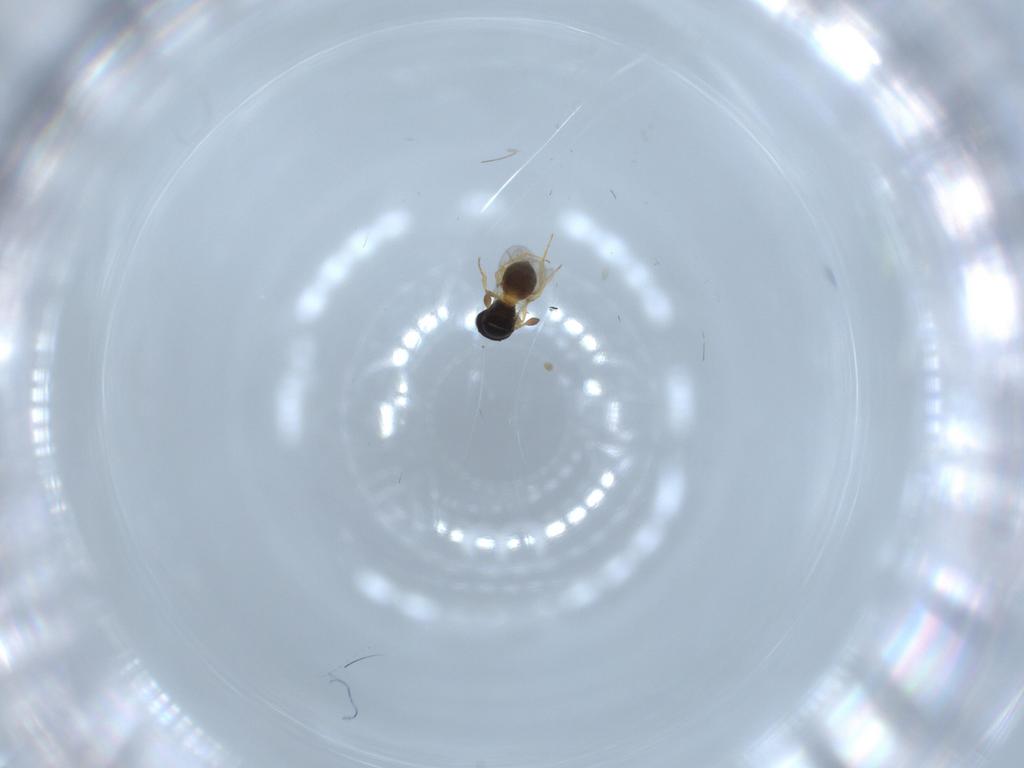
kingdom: Animalia
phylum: Arthropoda
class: Insecta
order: Hymenoptera
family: Scelionidae
